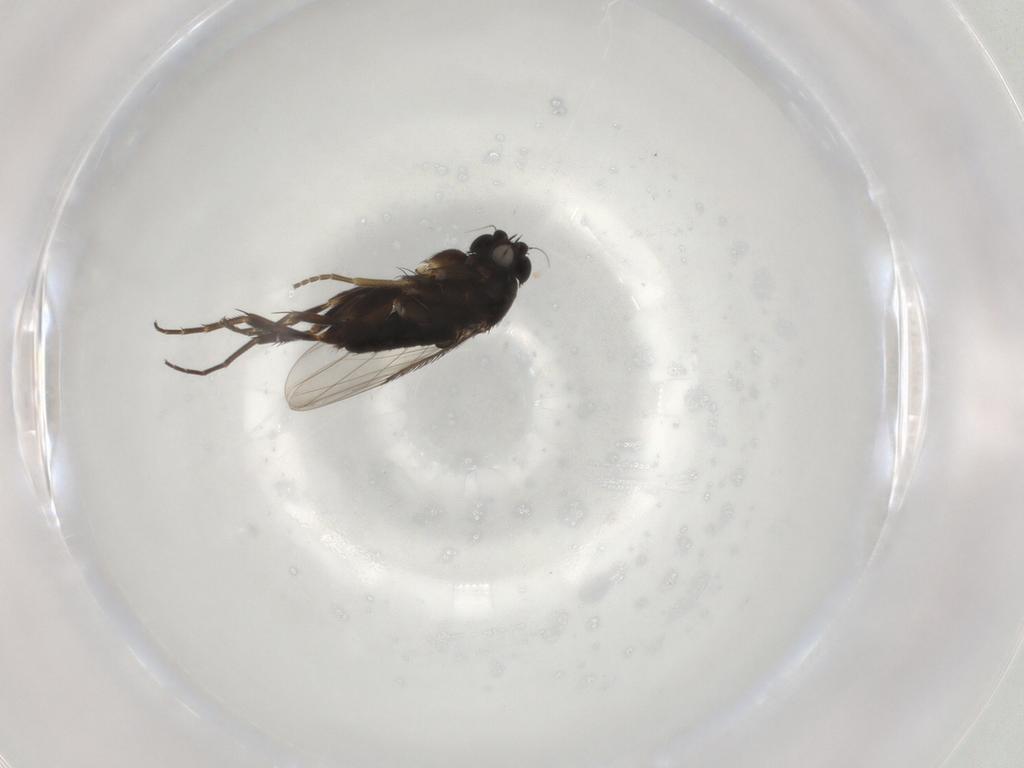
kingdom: Animalia
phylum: Arthropoda
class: Insecta
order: Diptera
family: Phoridae
